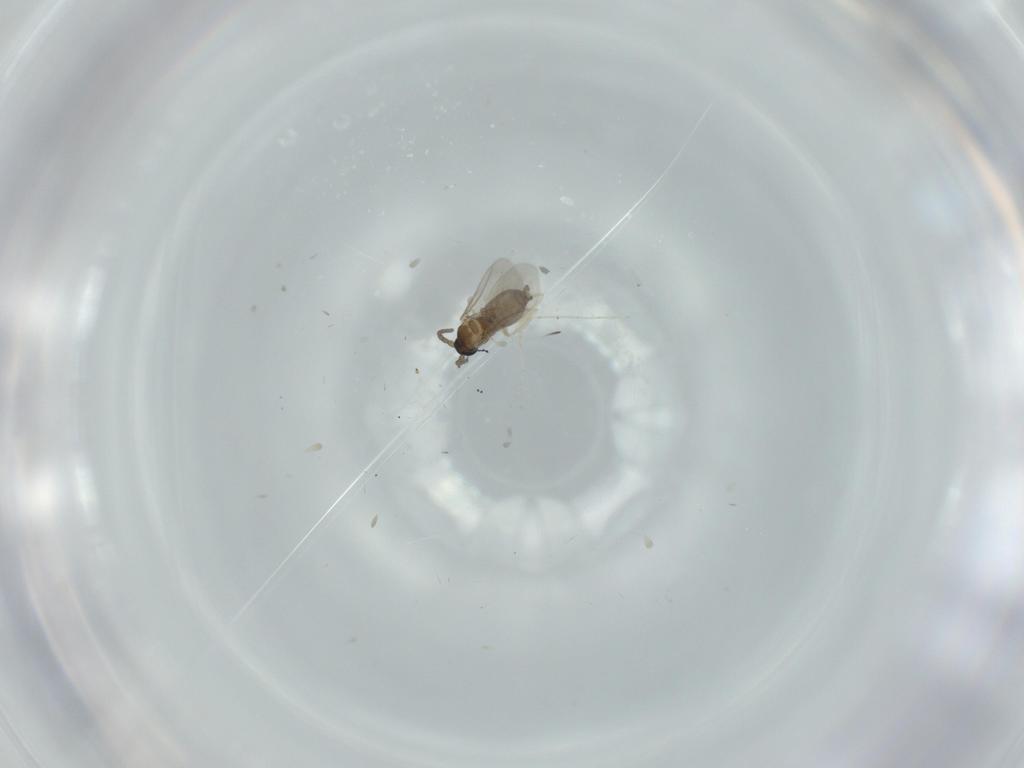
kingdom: Animalia
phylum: Arthropoda
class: Insecta
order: Diptera
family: Cecidomyiidae
